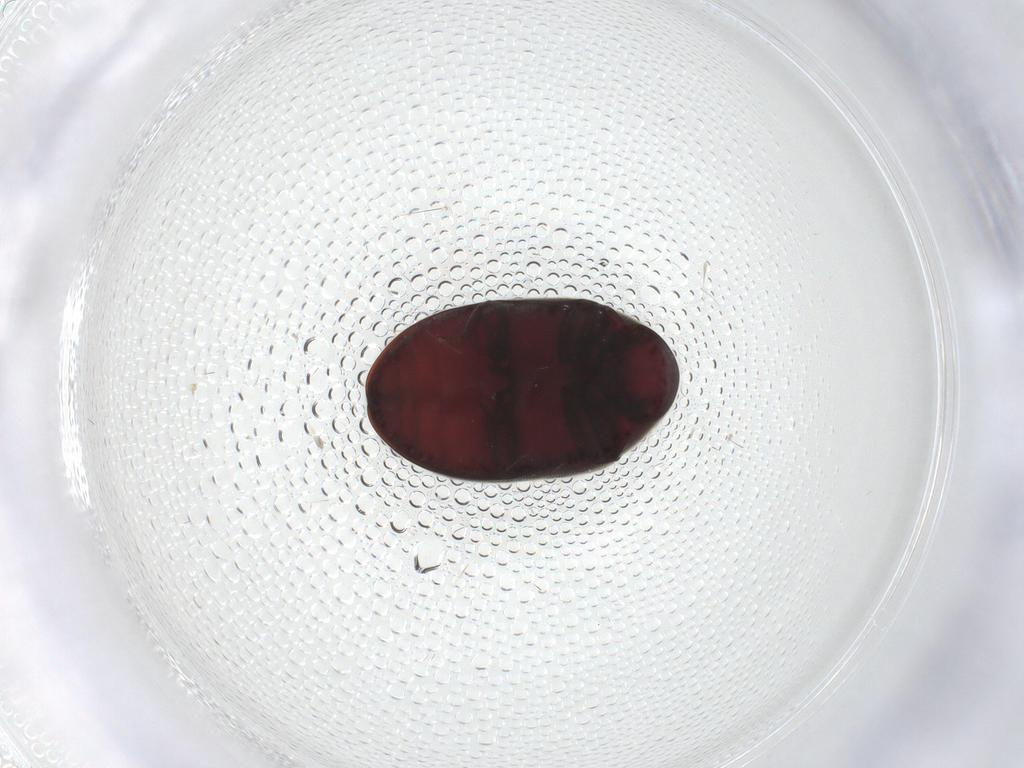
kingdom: Animalia
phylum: Arthropoda
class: Insecta
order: Coleoptera
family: Ptinidae
